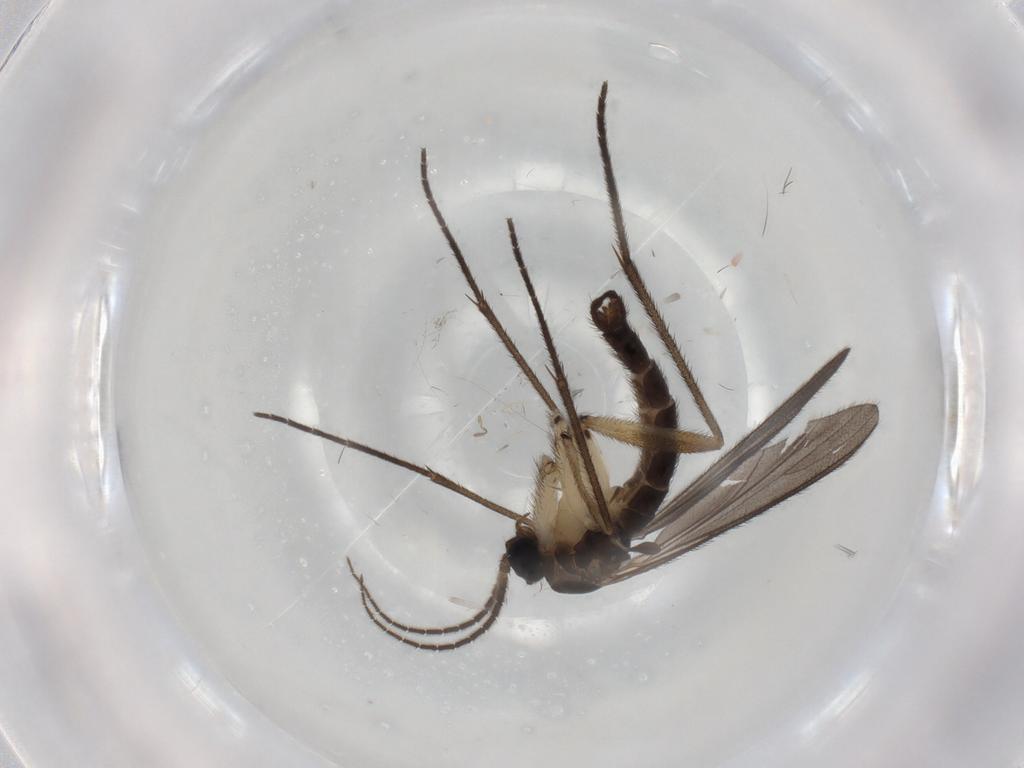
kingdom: Animalia
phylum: Arthropoda
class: Insecta
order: Diptera
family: Sciaridae
